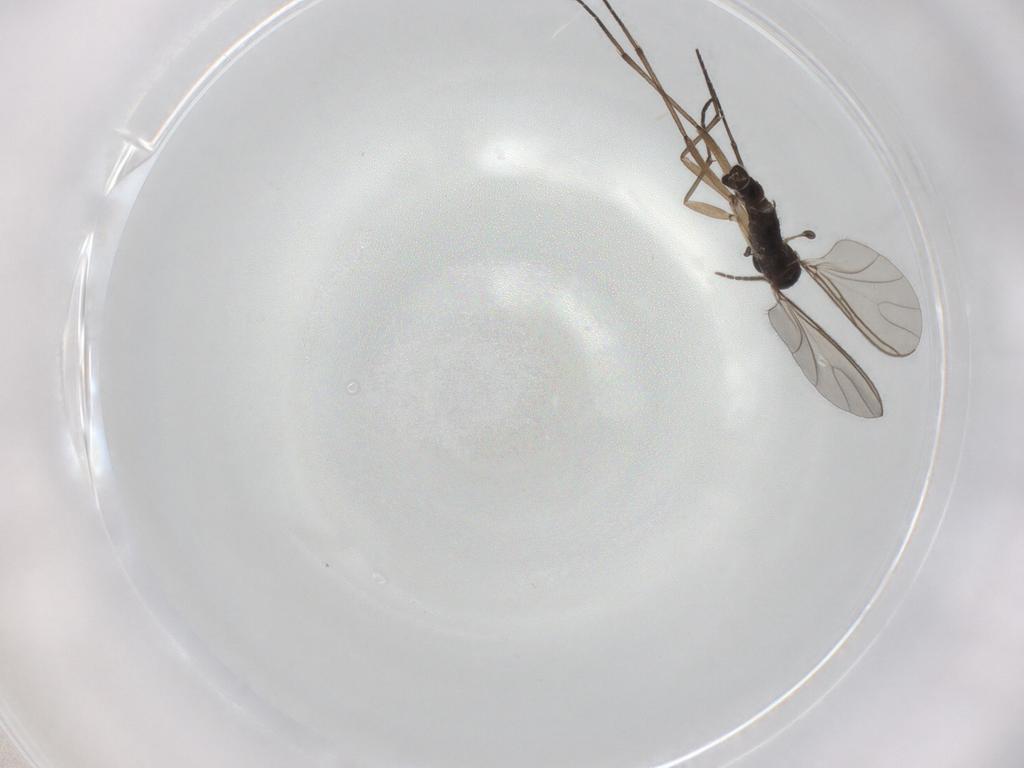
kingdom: Animalia
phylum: Arthropoda
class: Insecta
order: Diptera
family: Sciaridae
